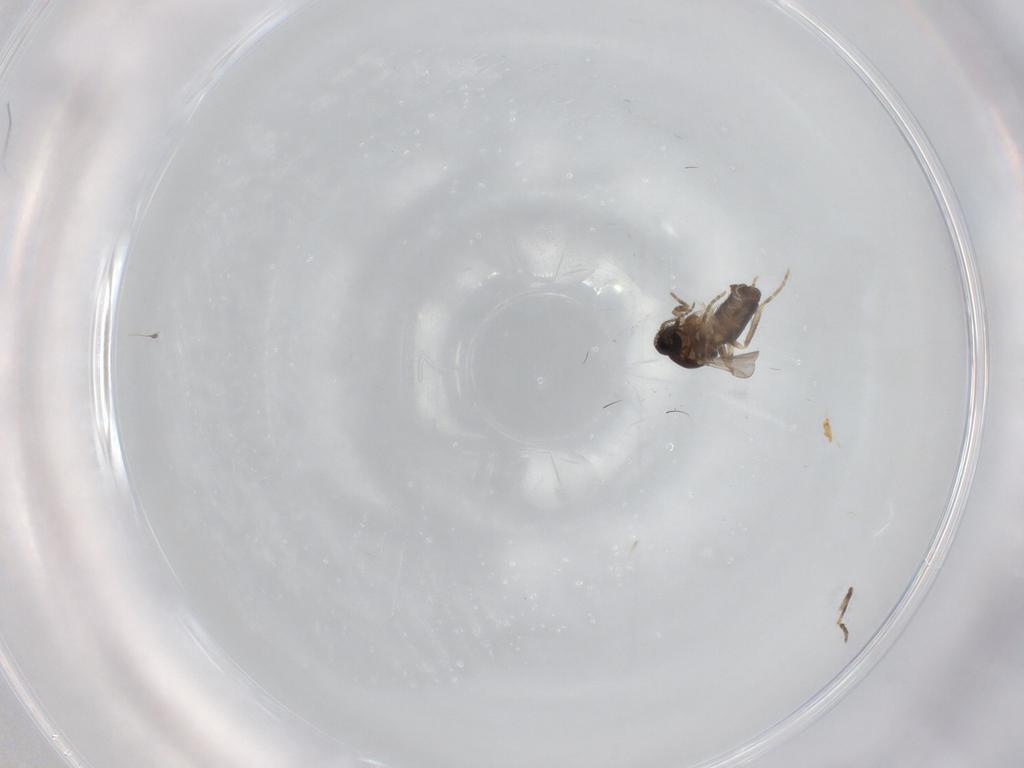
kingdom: Animalia
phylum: Arthropoda
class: Insecta
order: Diptera
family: Ceratopogonidae
